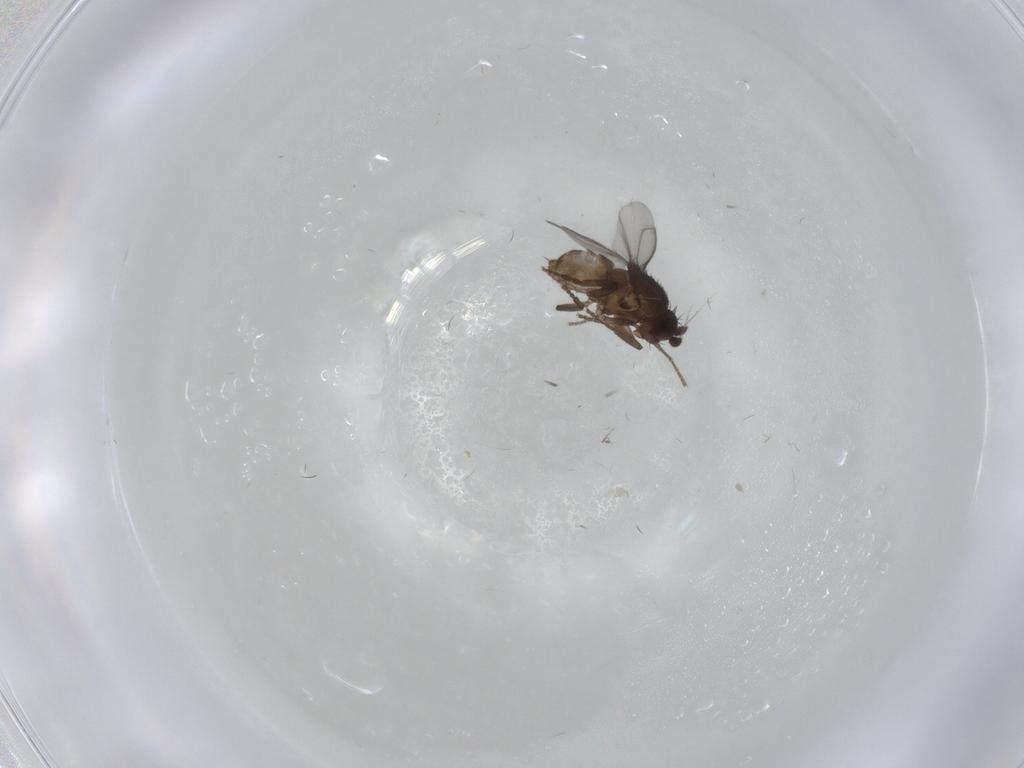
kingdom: Animalia
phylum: Arthropoda
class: Insecta
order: Diptera
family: Sphaeroceridae
